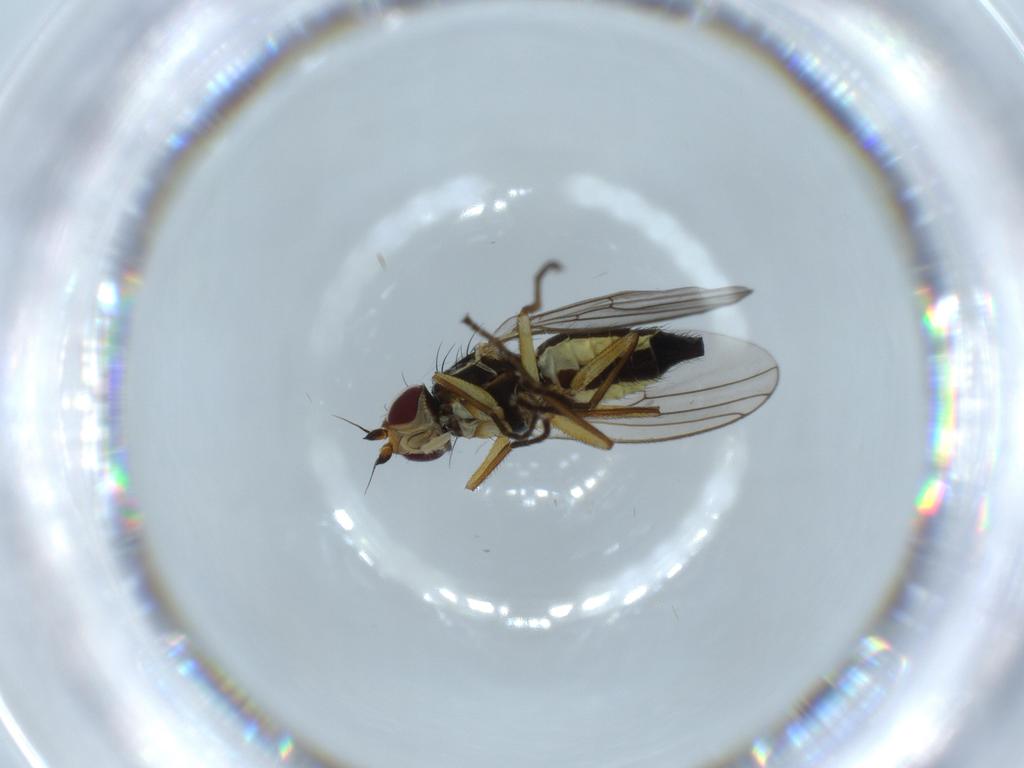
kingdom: Animalia
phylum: Arthropoda
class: Insecta
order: Diptera
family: Agromyzidae
